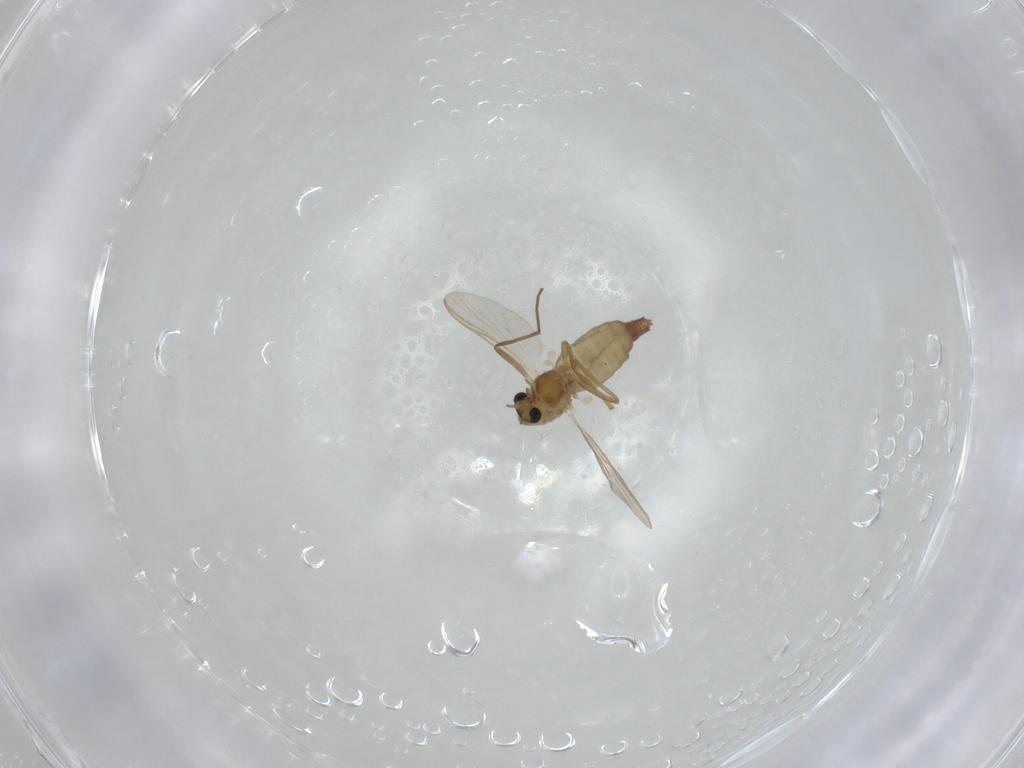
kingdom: Animalia
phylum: Arthropoda
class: Insecta
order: Diptera
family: Chironomidae
